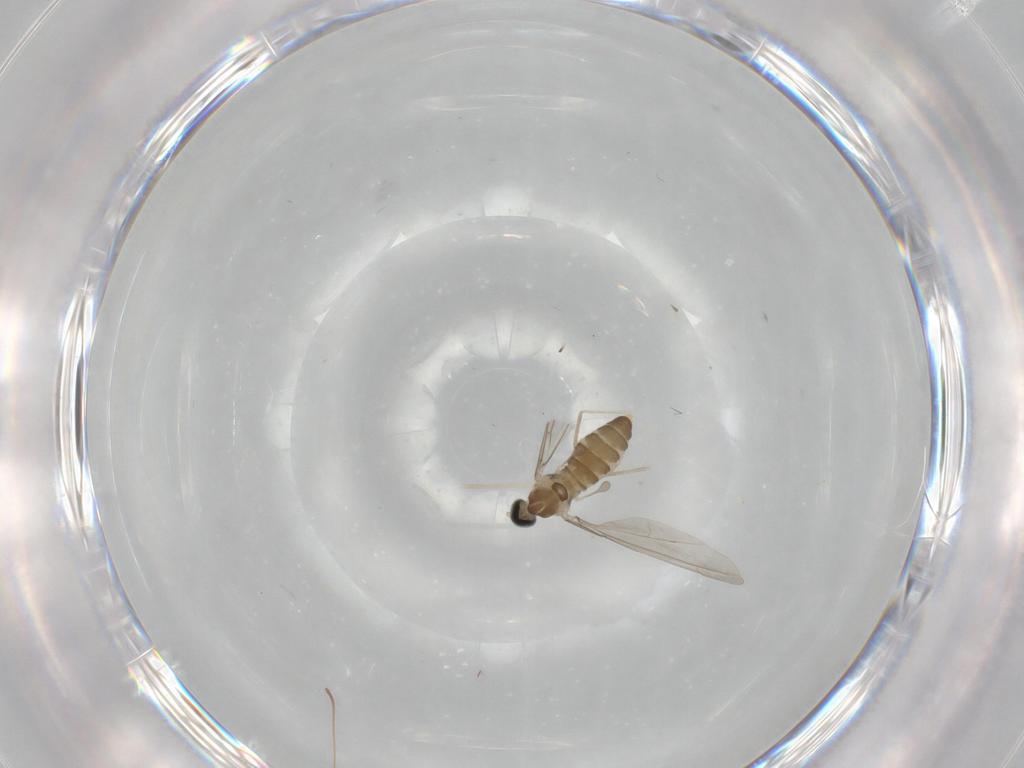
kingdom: Animalia
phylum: Arthropoda
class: Insecta
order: Diptera
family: Cecidomyiidae
